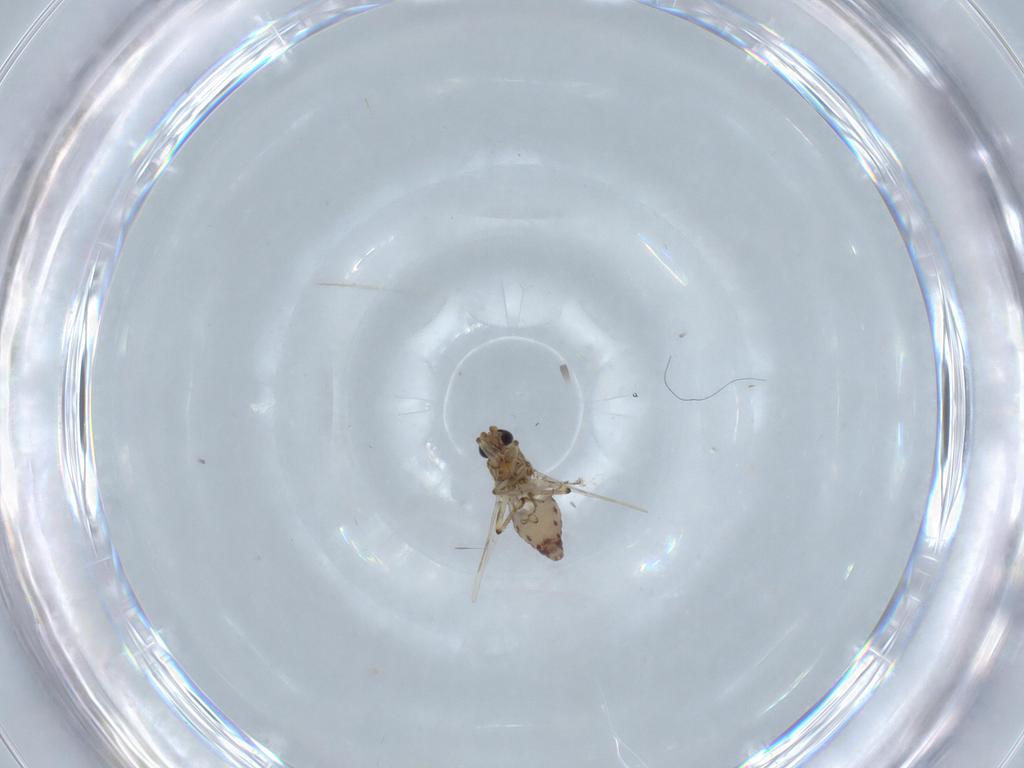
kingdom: Animalia
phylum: Arthropoda
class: Insecta
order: Diptera
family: Ceratopogonidae
